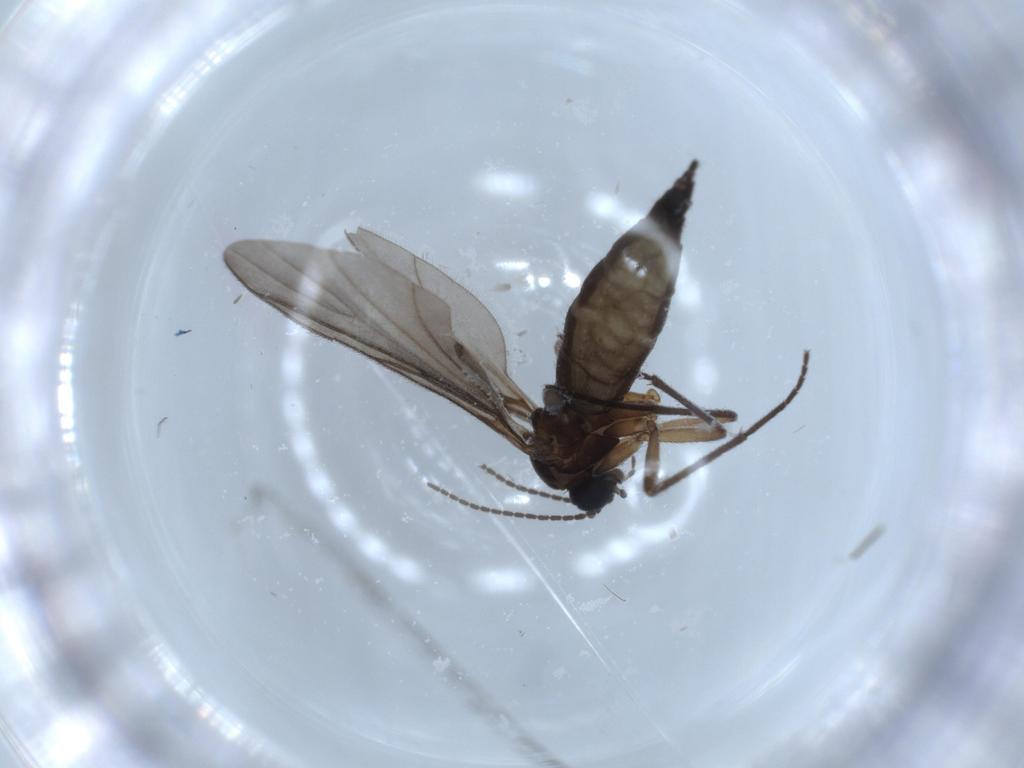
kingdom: Animalia
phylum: Arthropoda
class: Insecta
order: Diptera
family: Sciaridae
